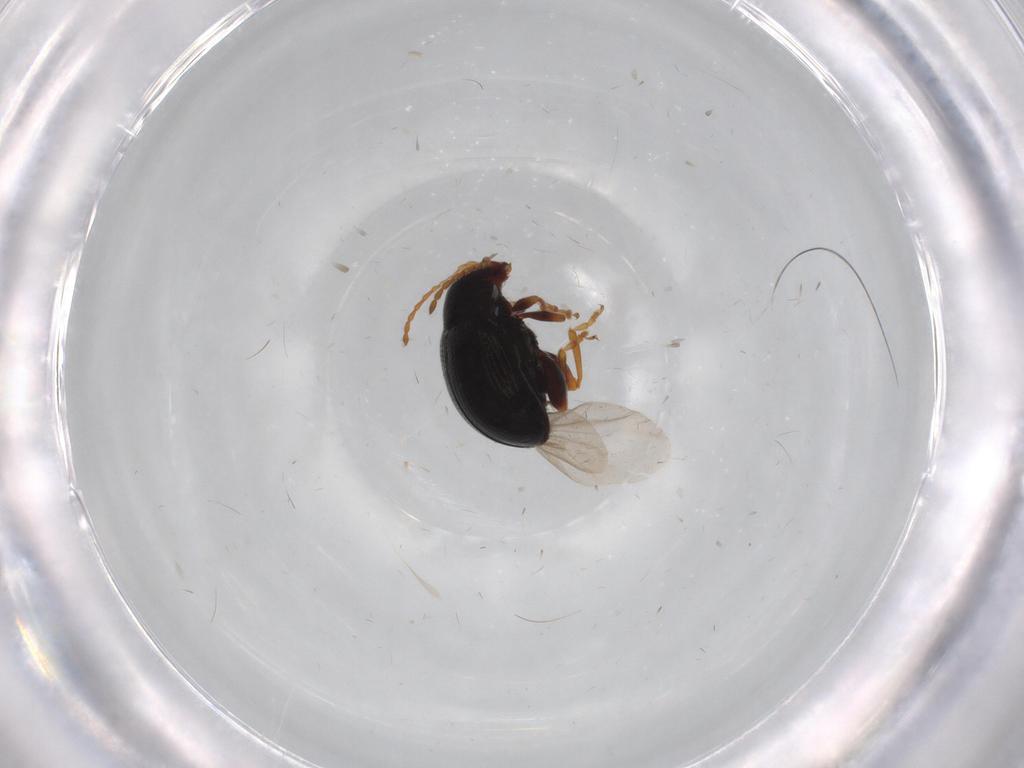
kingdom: Animalia
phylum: Arthropoda
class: Insecta
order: Coleoptera
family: Chrysomelidae
